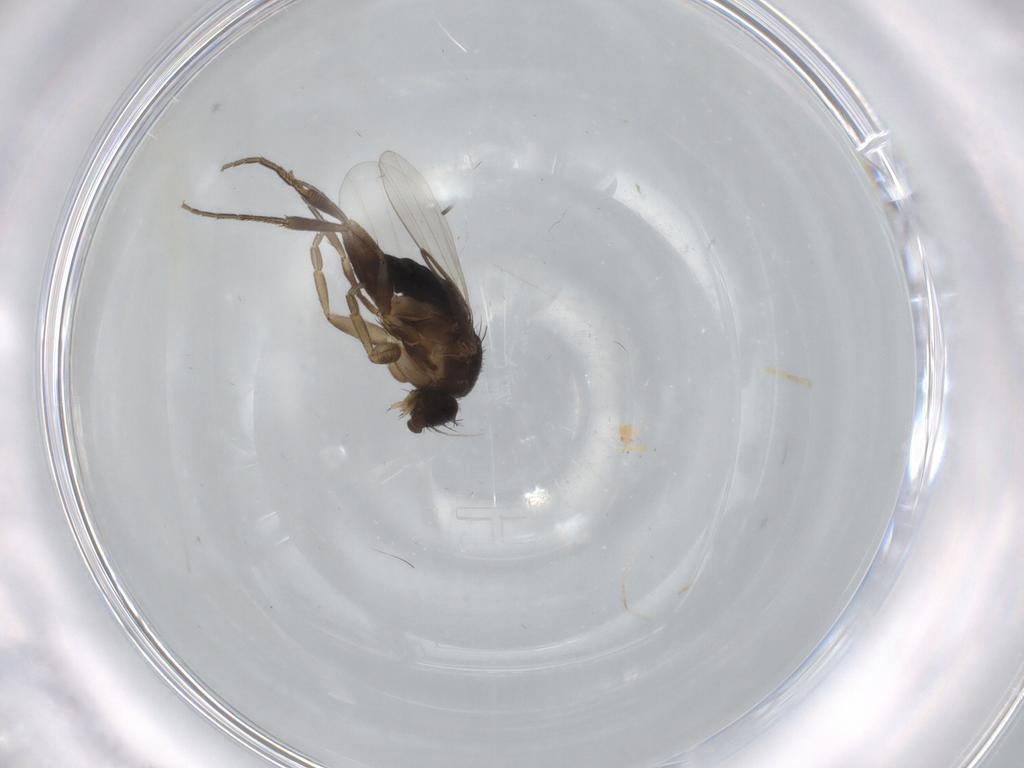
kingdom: Animalia
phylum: Arthropoda
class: Insecta
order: Diptera
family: Phoridae
